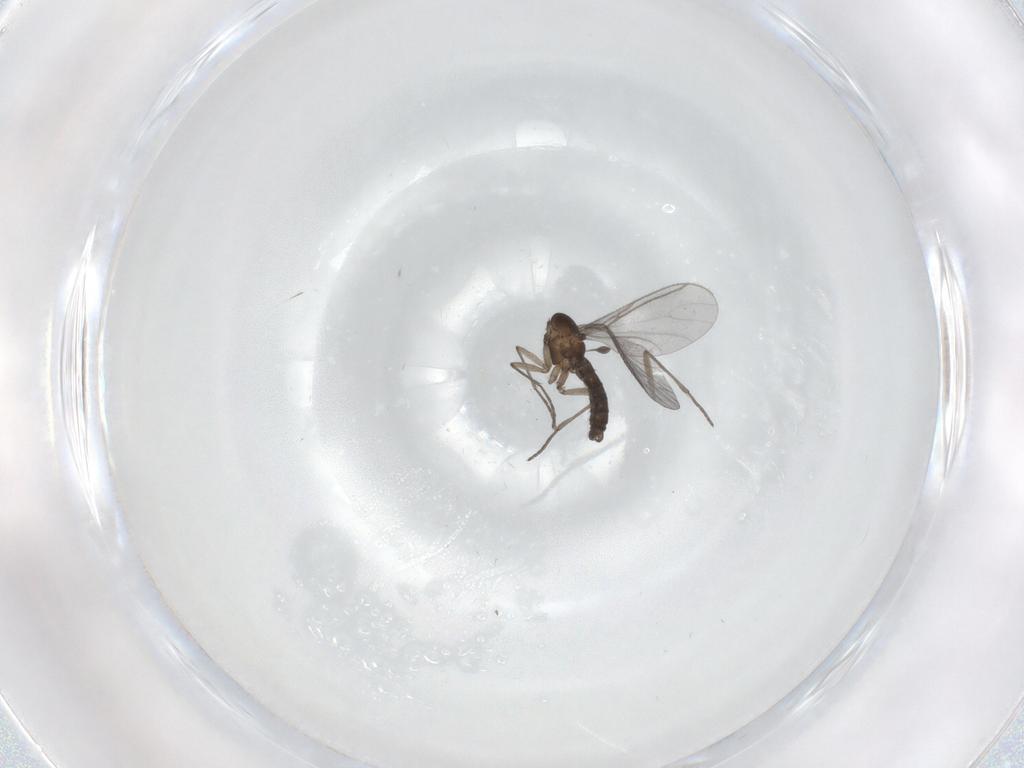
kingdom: Animalia
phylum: Arthropoda
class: Insecta
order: Diptera
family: Sciaridae
